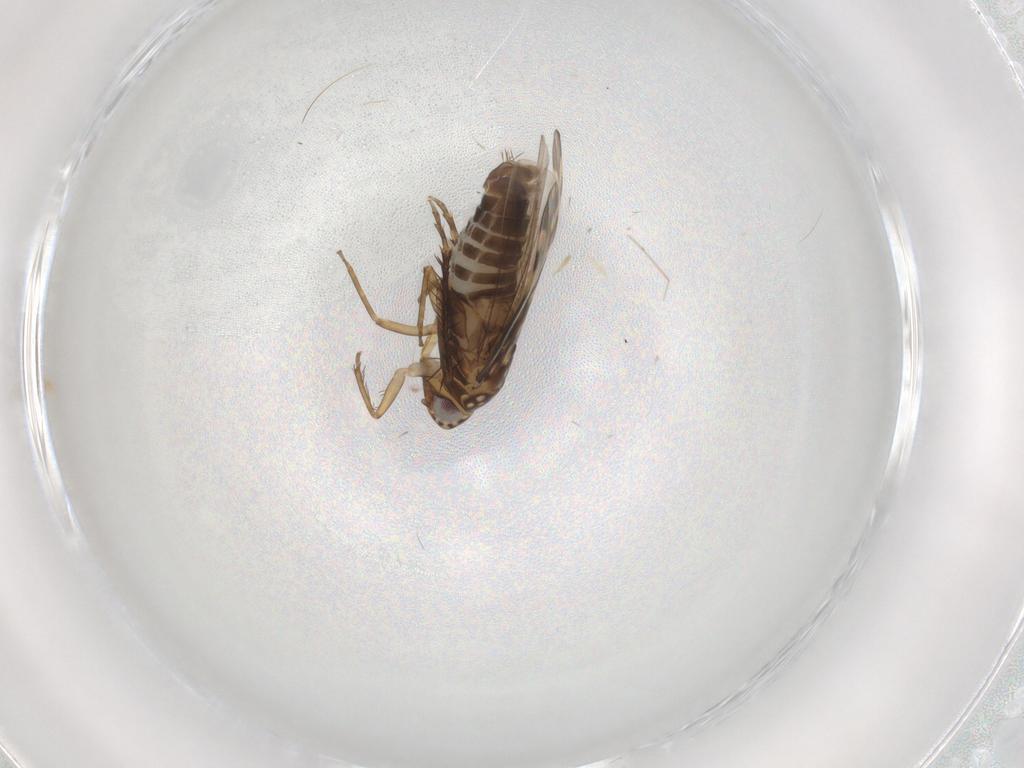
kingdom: Animalia
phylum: Arthropoda
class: Insecta
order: Hemiptera
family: Cicadellidae
